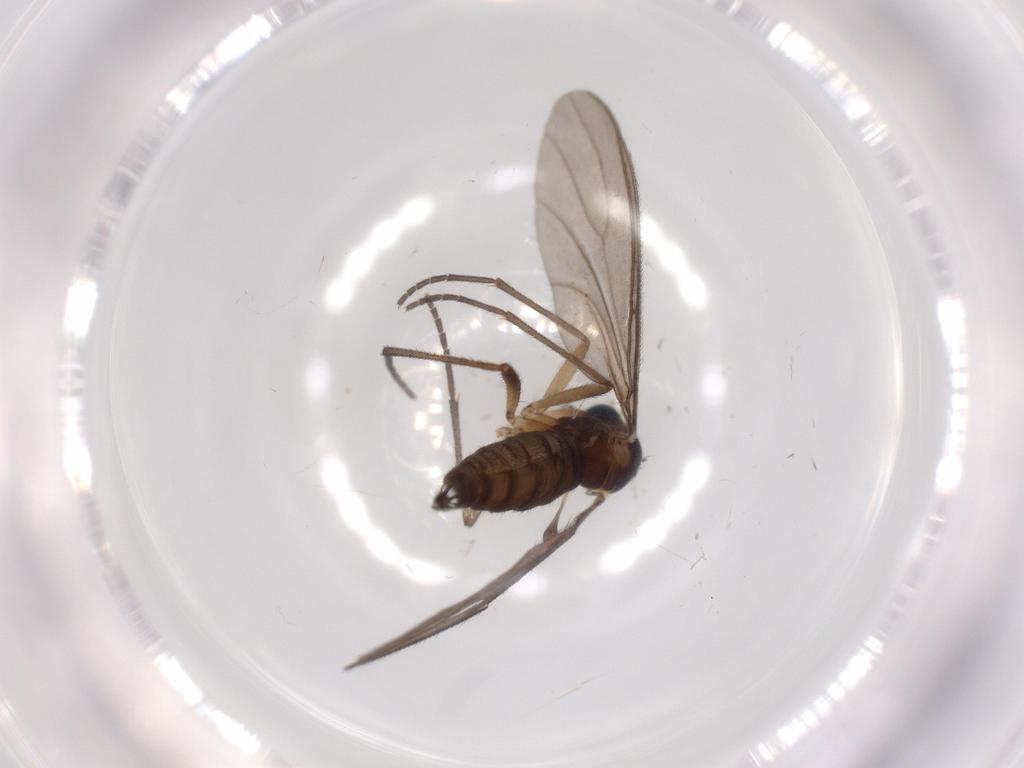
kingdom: Animalia
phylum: Arthropoda
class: Insecta
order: Diptera
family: Sciaridae
